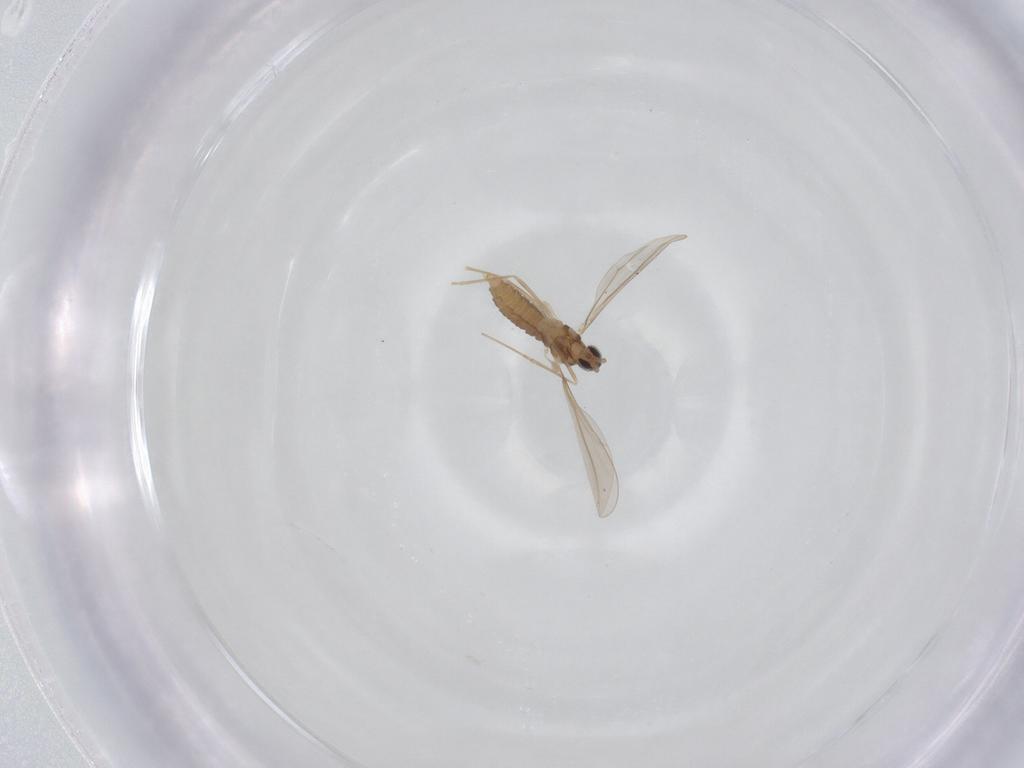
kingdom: Animalia
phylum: Arthropoda
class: Insecta
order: Diptera
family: Cecidomyiidae
